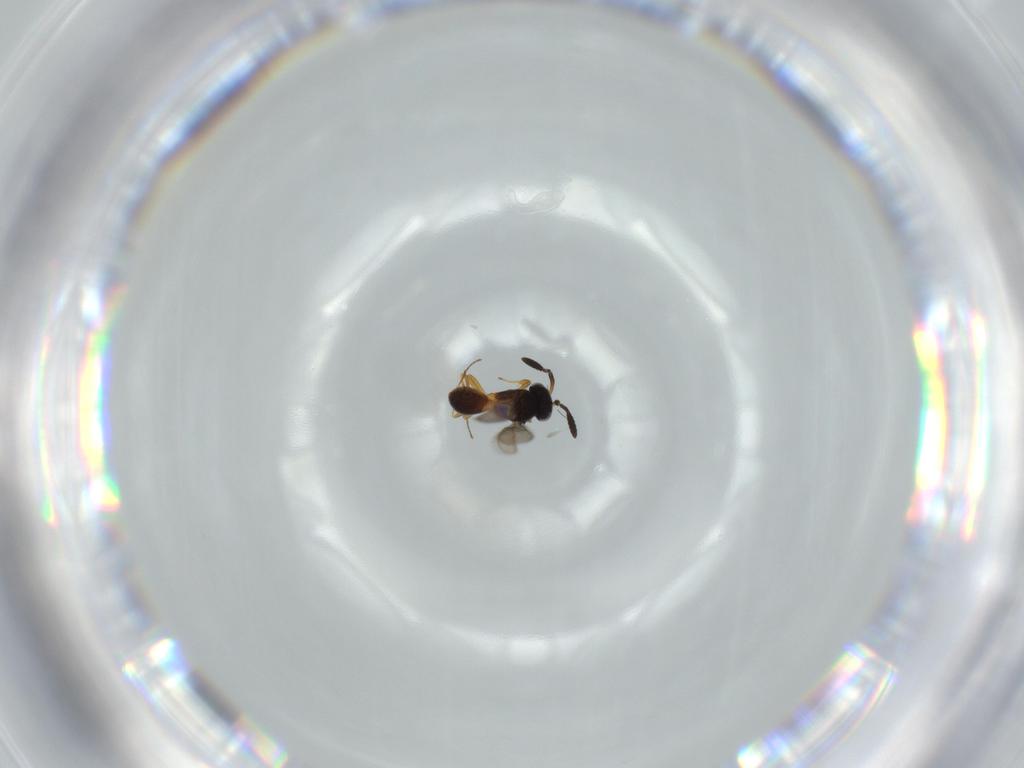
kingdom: Animalia
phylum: Arthropoda
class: Insecta
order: Hymenoptera
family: Scelionidae
